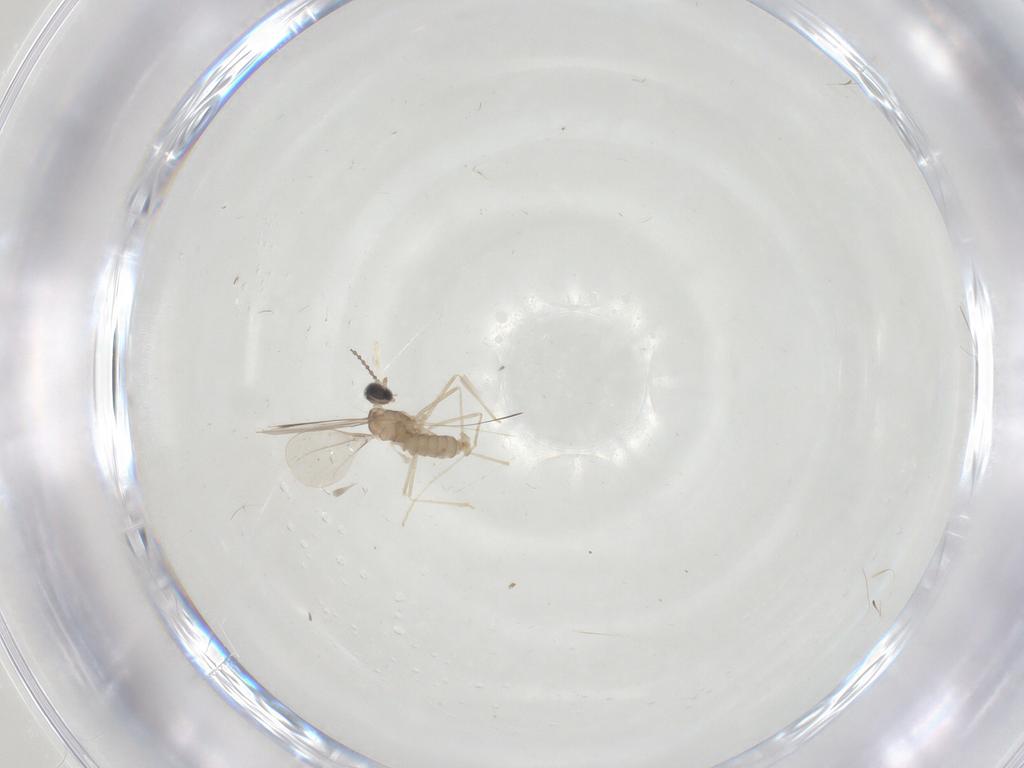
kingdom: Animalia
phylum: Arthropoda
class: Insecta
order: Diptera
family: Cecidomyiidae
